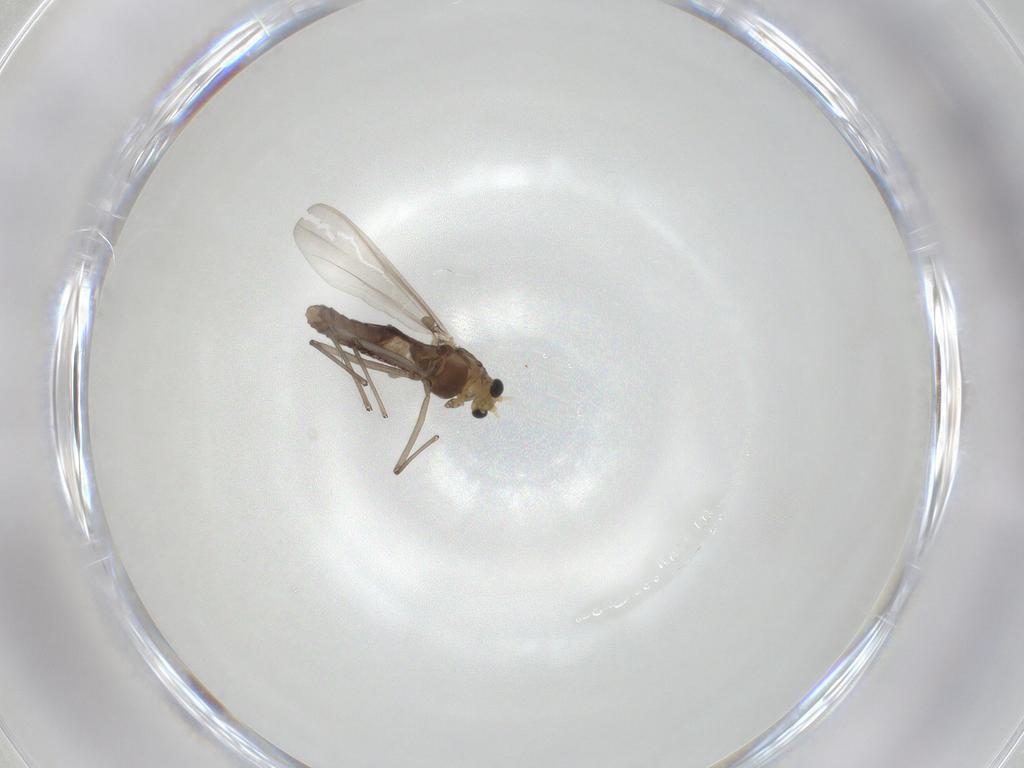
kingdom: Animalia
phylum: Arthropoda
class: Insecta
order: Diptera
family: Chironomidae
